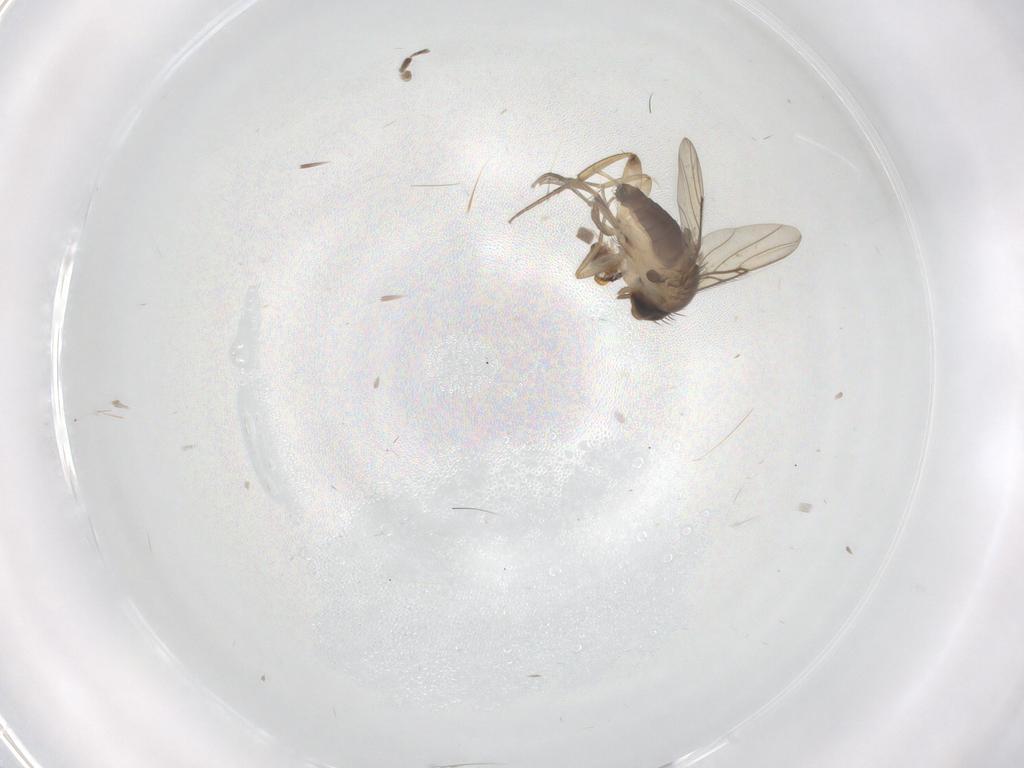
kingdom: Animalia
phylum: Arthropoda
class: Insecta
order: Diptera
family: Phoridae
